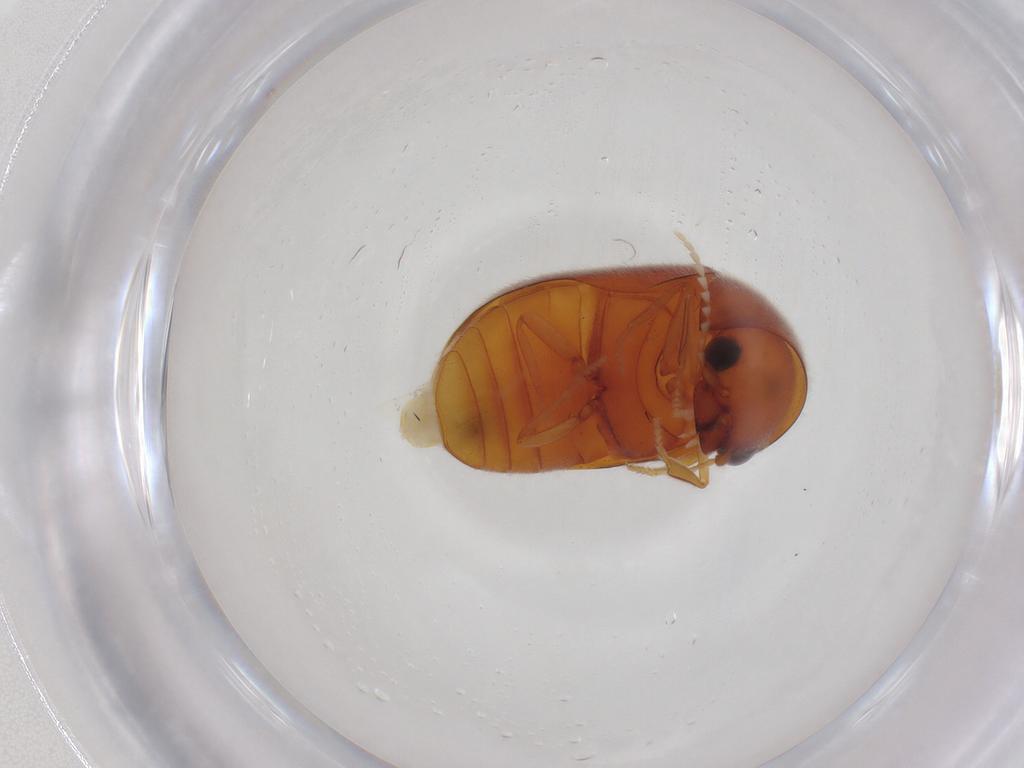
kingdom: Animalia
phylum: Arthropoda
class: Insecta
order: Coleoptera
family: Ptinidae
